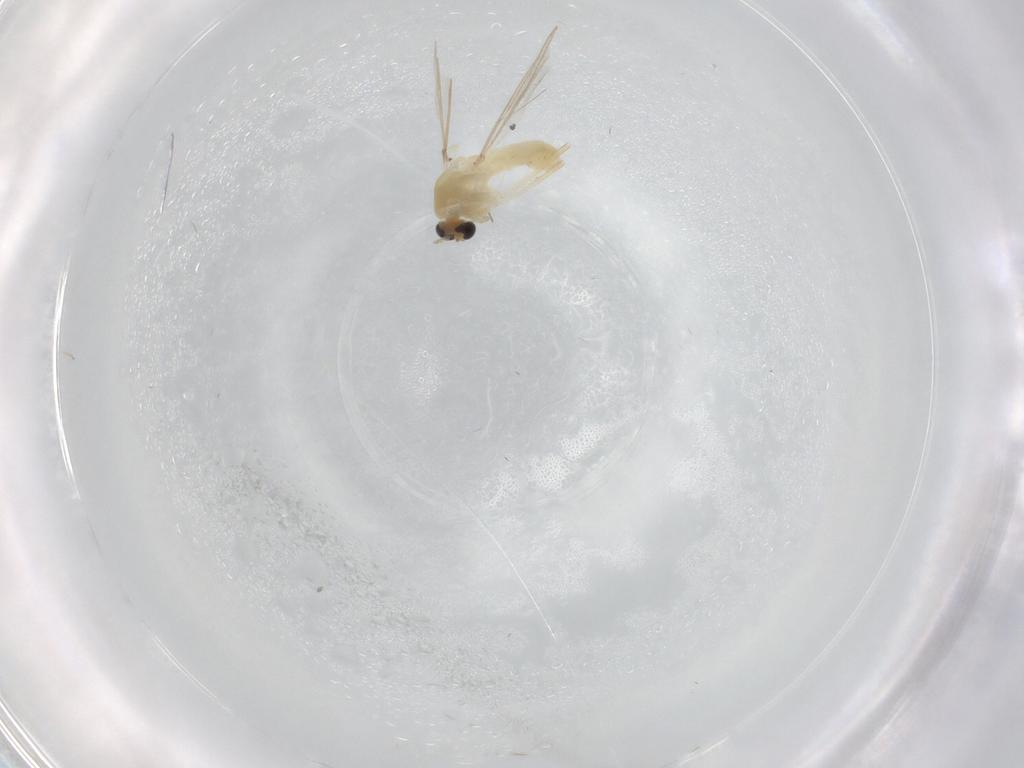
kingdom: Animalia
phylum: Arthropoda
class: Insecta
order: Diptera
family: Chironomidae
